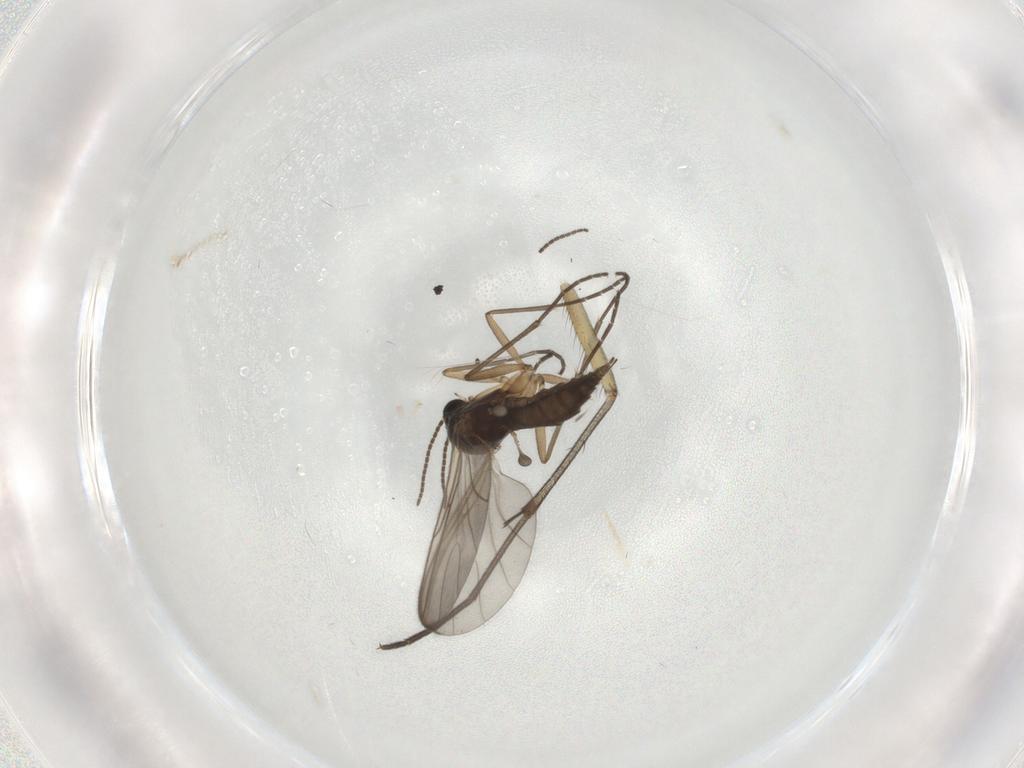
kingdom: Animalia
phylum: Arthropoda
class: Insecta
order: Diptera
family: Sciaridae
